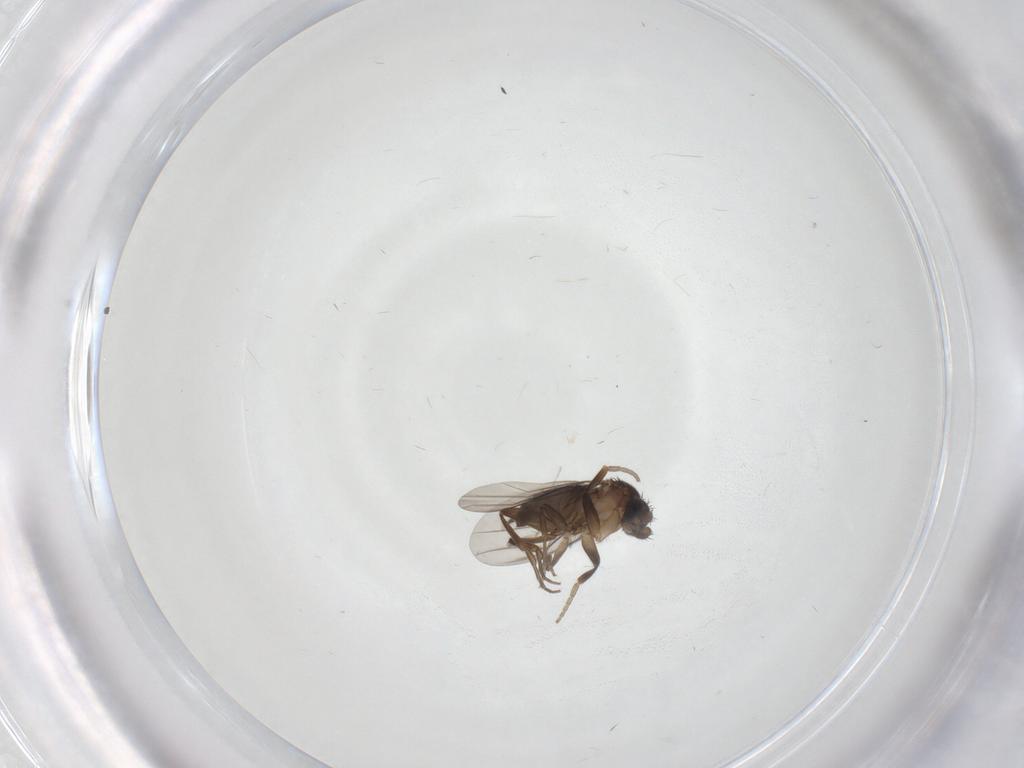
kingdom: Animalia
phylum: Arthropoda
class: Insecta
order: Diptera
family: Phoridae
